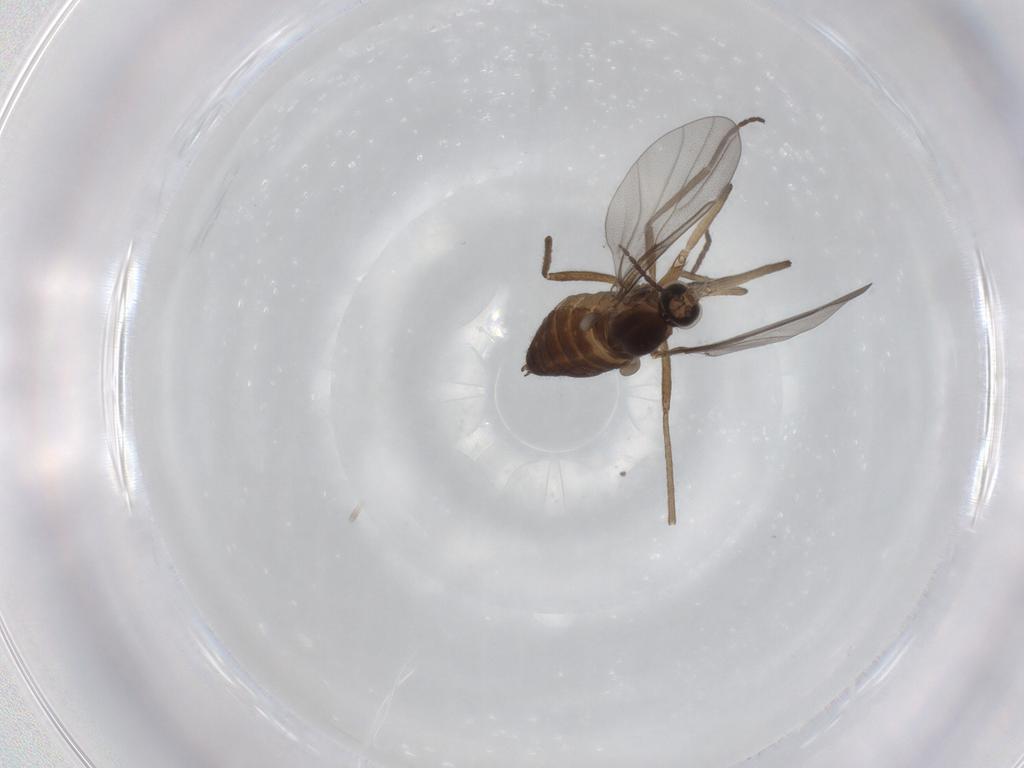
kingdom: Animalia
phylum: Arthropoda
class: Insecta
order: Diptera
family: Cecidomyiidae
